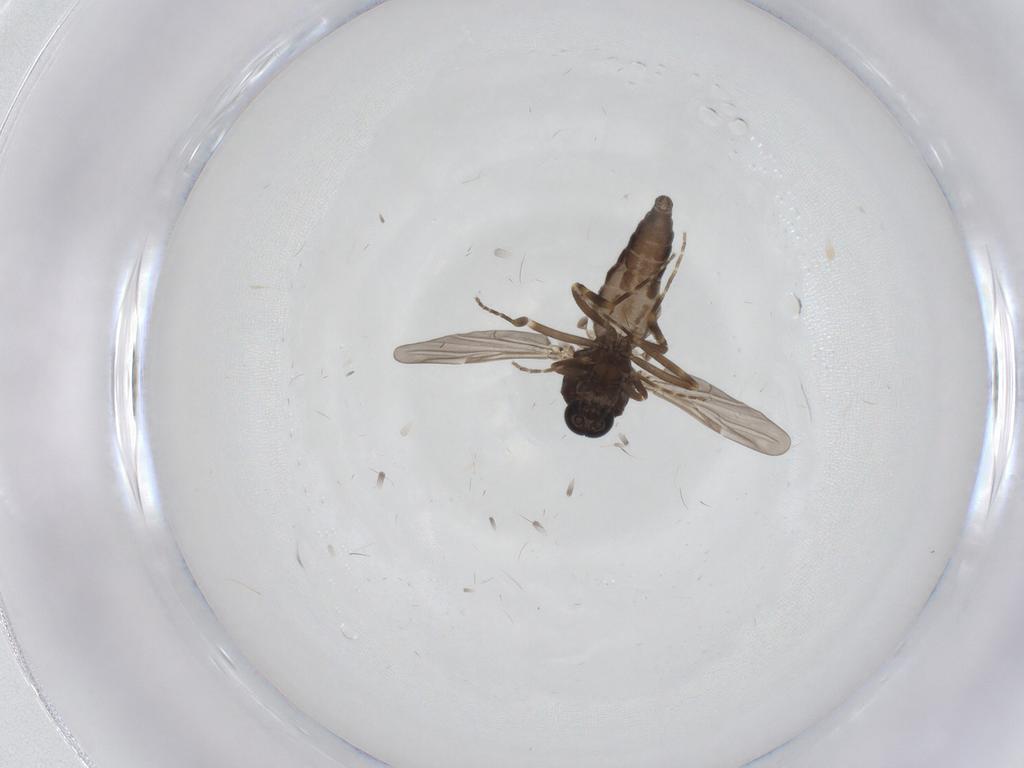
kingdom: Animalia
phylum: Arthropoda
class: Insecta
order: Diptera
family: Ceratopogonidae
